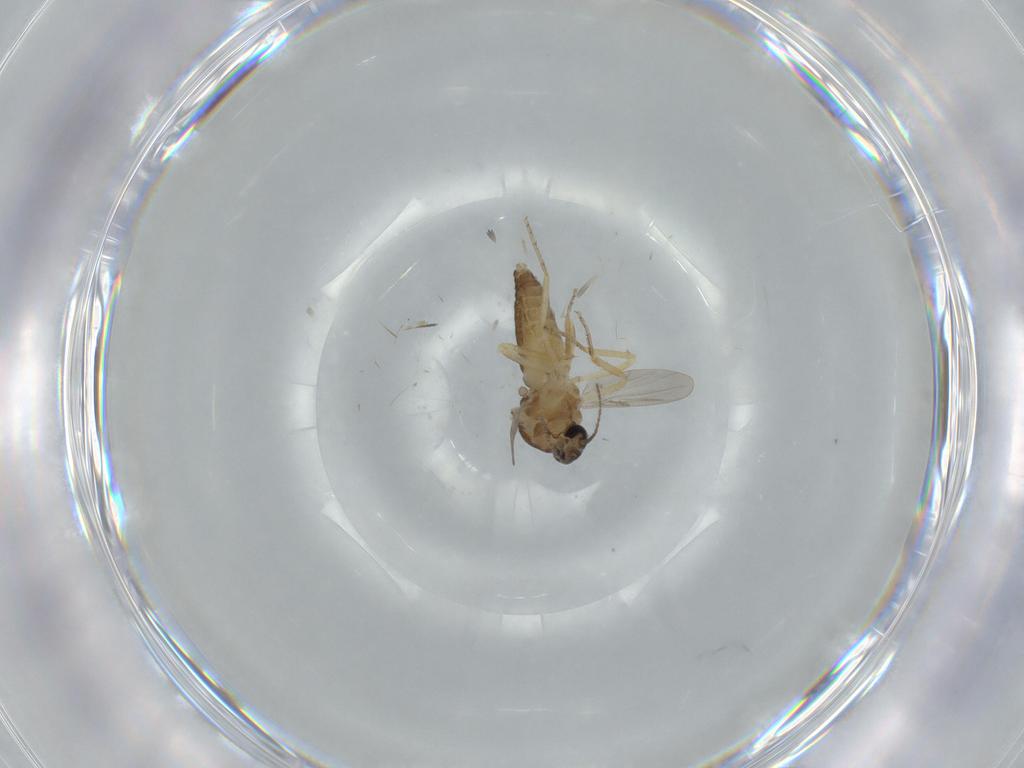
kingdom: Animalia
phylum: Arthropoda
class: Insecta
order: Diptera
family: Ceratopogonidae
